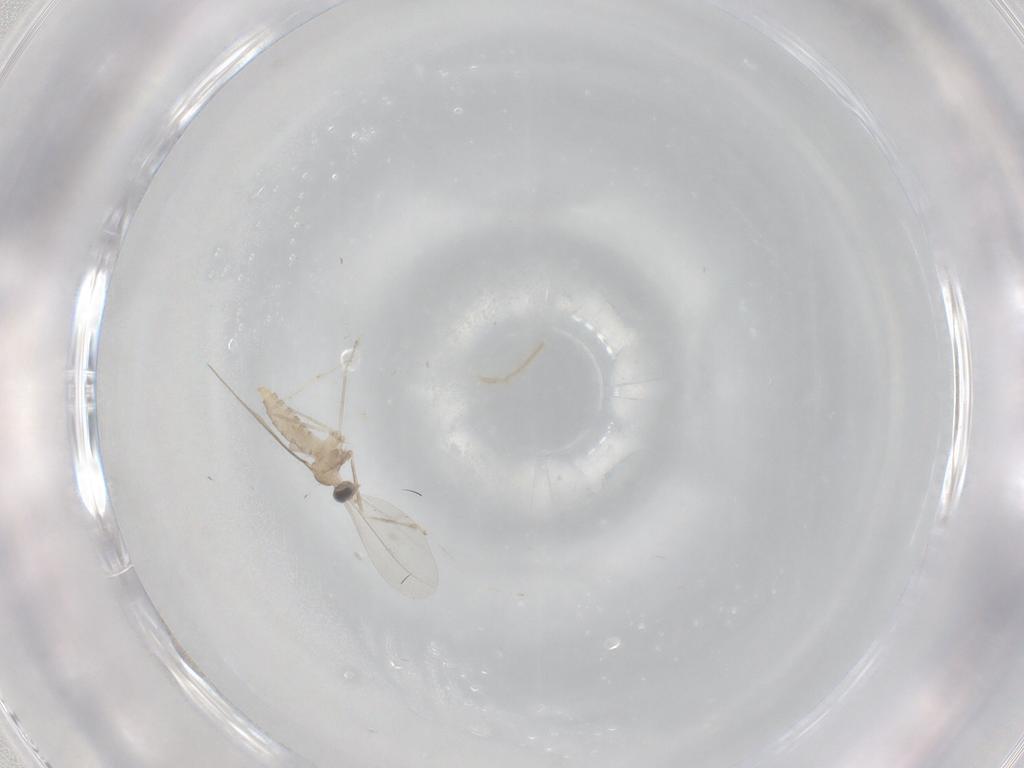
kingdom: Animalia
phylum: Arthropoda
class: Insecta
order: Diptera
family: Cecidomyiidae
